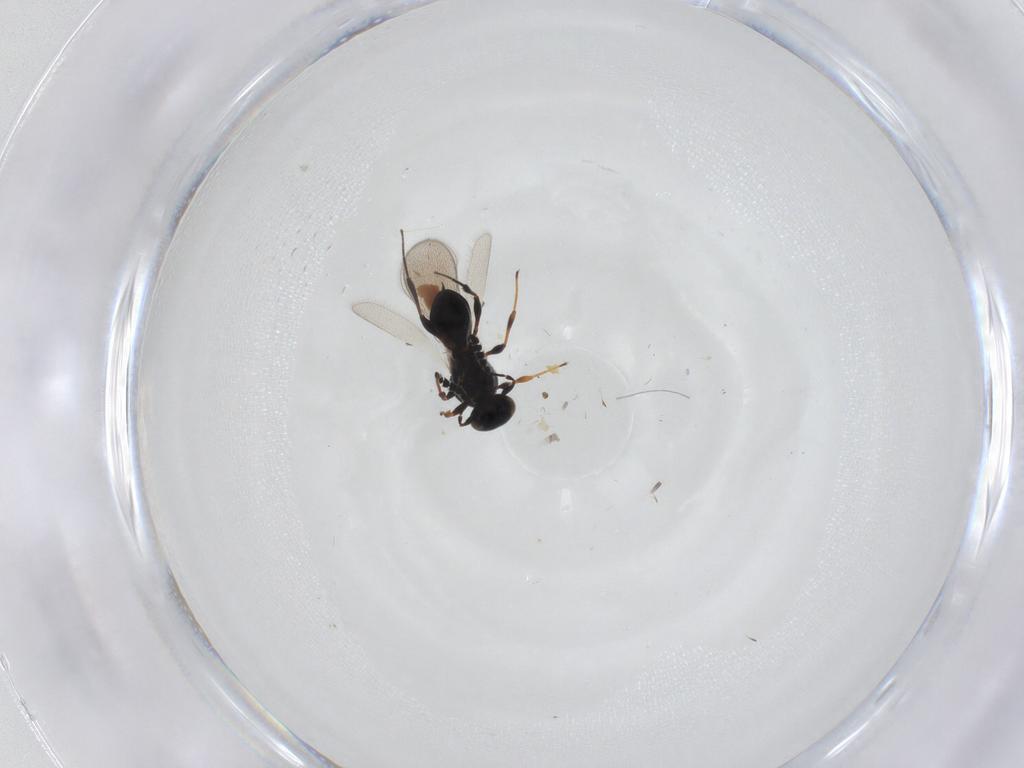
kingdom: Animalia
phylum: Arthropoda
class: Insecta
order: Hymenoptera
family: Platygastridae
